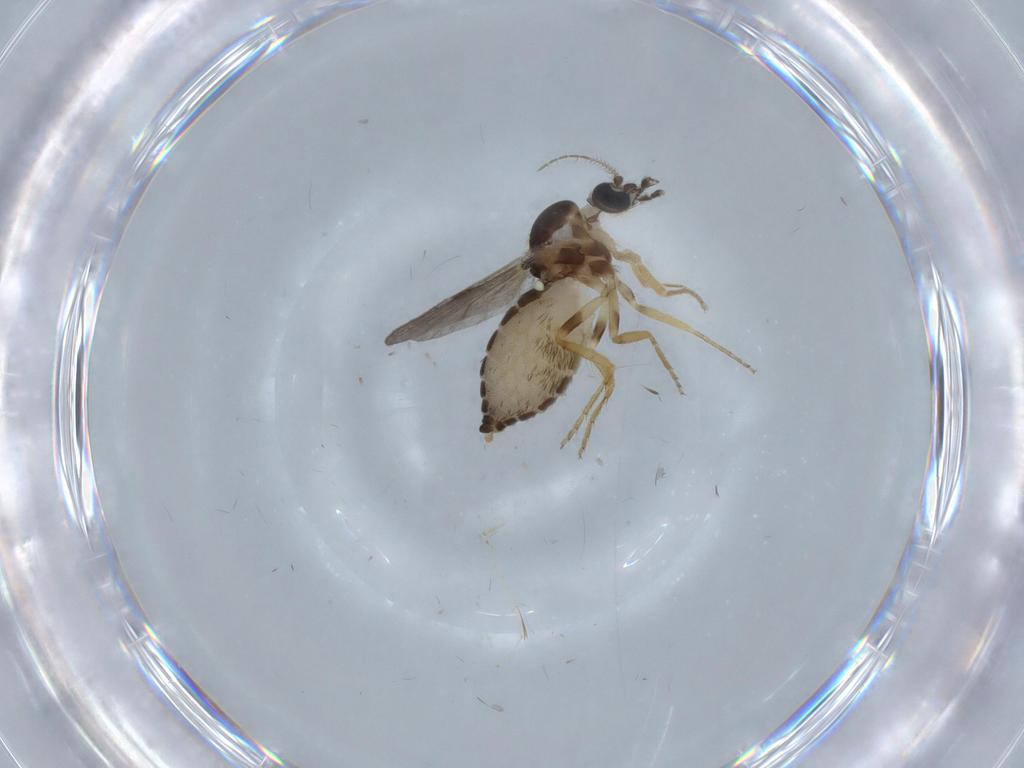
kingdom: Animalia
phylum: Arthropoda
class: Insecta
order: Diptera
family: Ceratopogonidae
